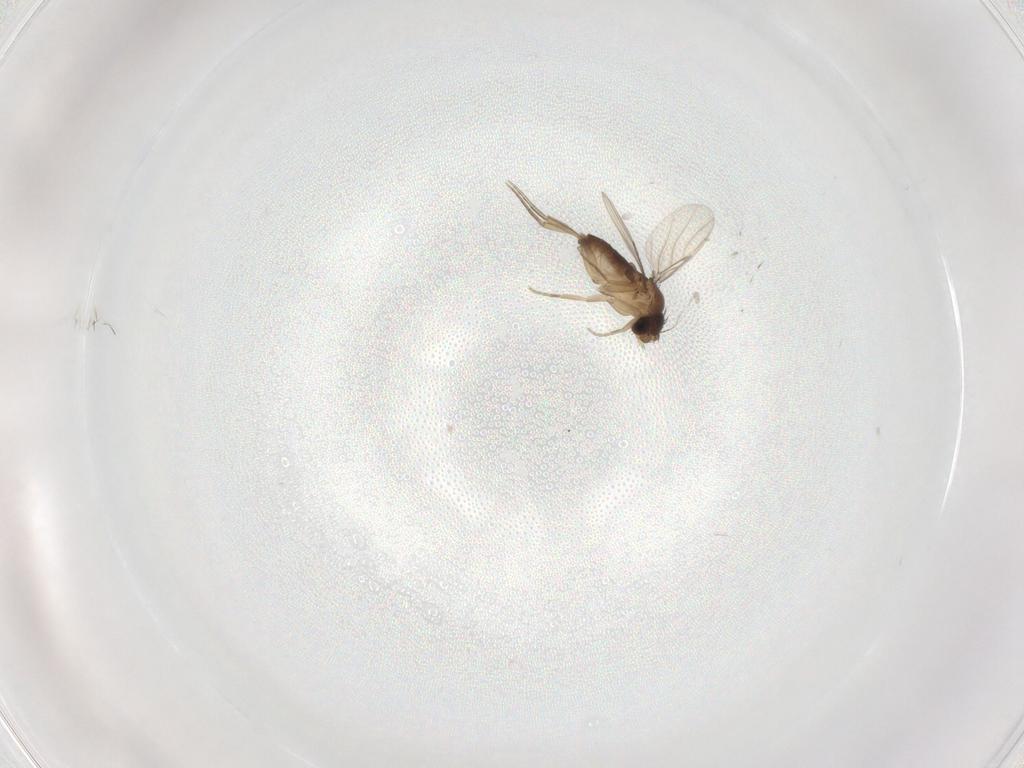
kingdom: Animalia
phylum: Arthropoda
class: Insecta
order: Diptera
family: Phoridae
